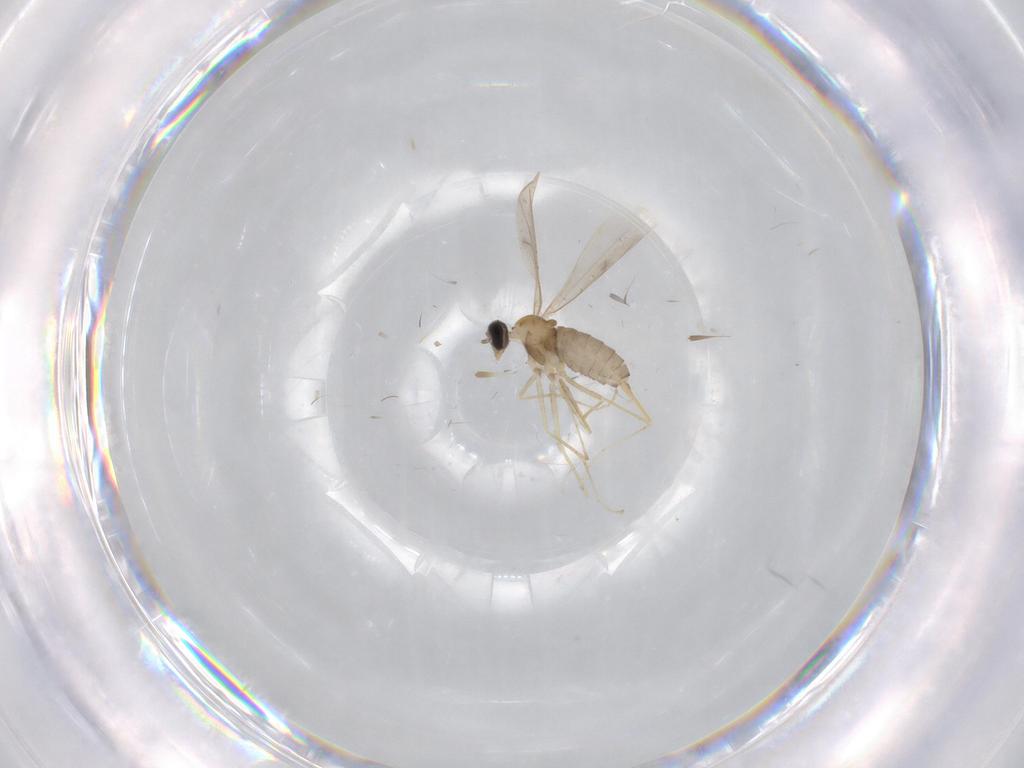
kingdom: Animalia
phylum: Arthropoda
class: Insecta
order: Diptera
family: Cecidomyiidae
